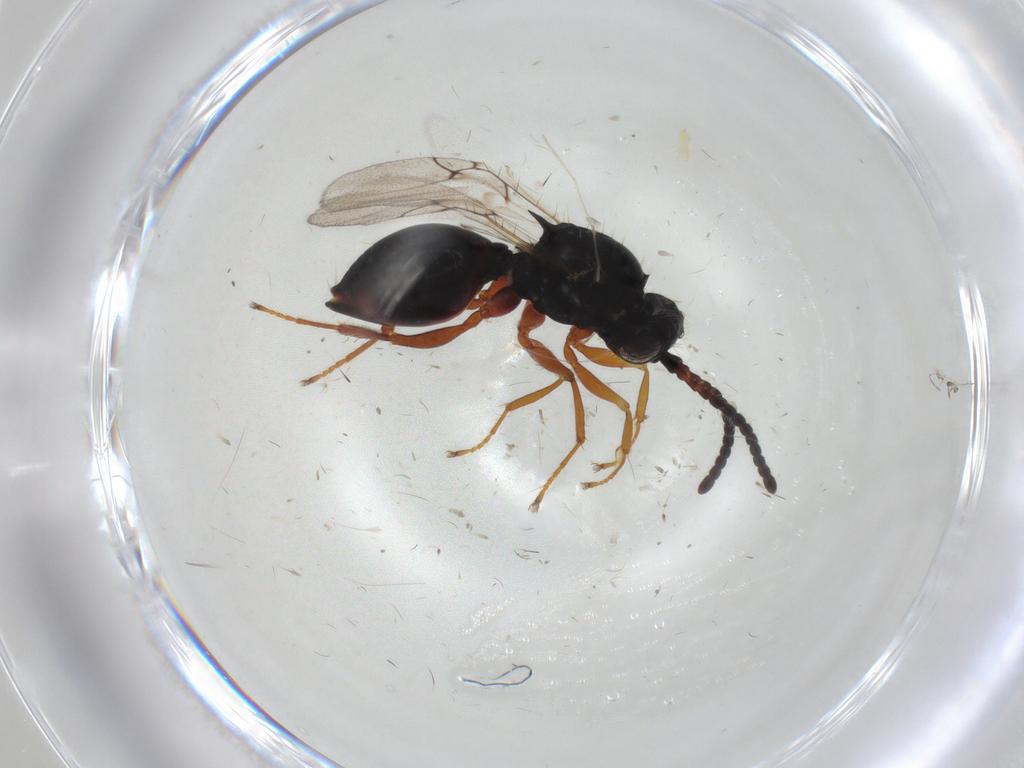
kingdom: Animalia
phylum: Arthropoda
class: Insecta
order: Hymenoptera
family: Figitidae
